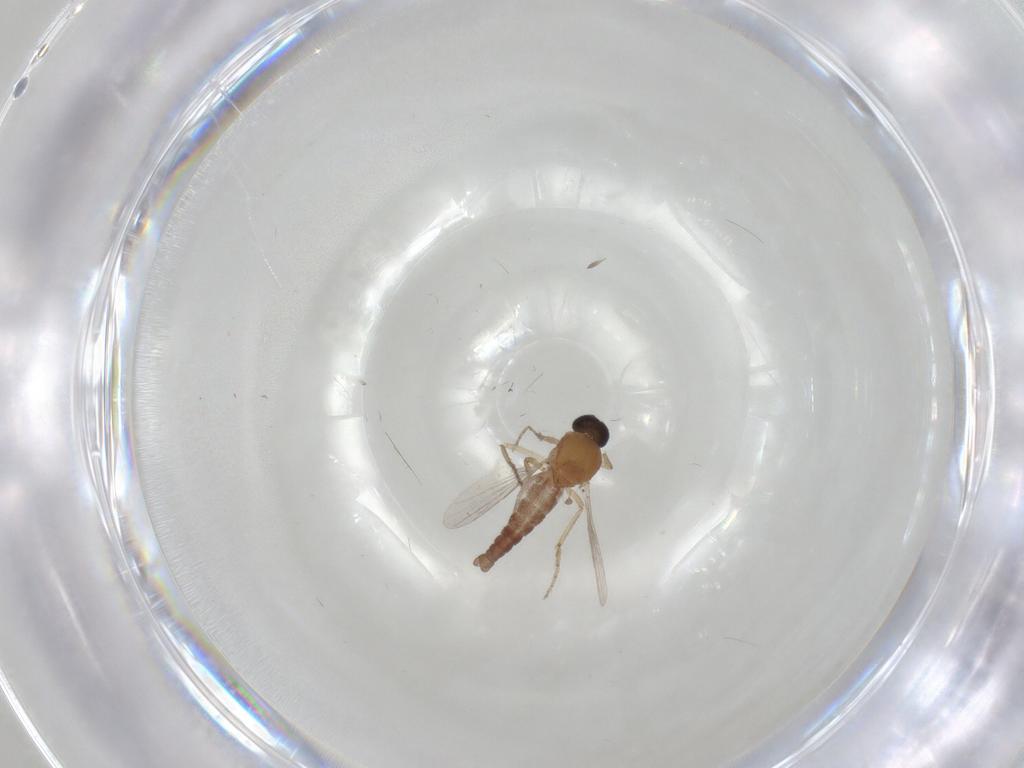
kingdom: Animalia
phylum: Arthropoda
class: Insecta
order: Diptera
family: Ceratopogonidae
